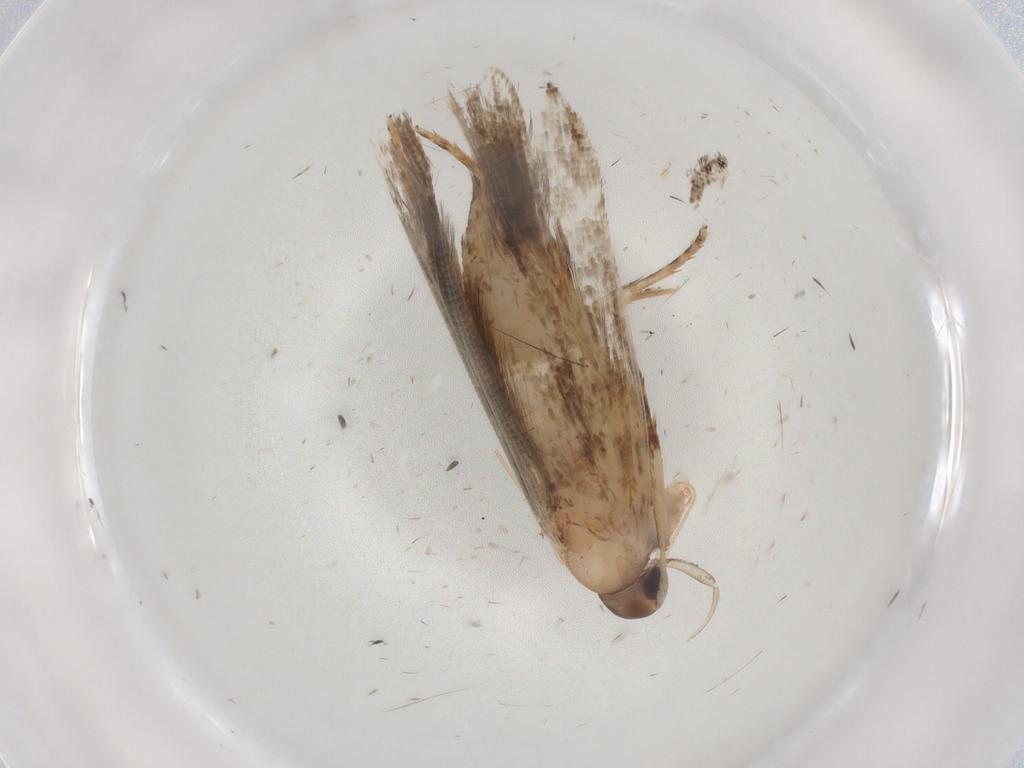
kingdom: Animalia
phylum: Arthropoda
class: Insecta
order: Lepidoptera
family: Gelechiidae
